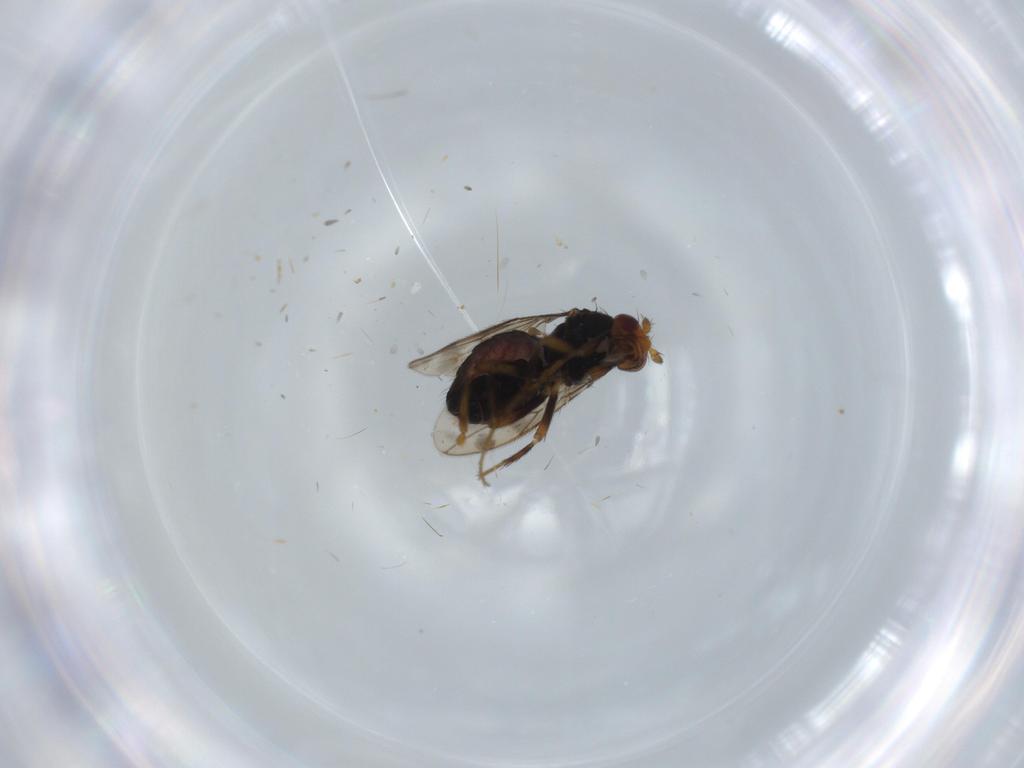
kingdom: Animalia
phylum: Arthropoda
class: Insecta
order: Diptera
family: Sphaeroceridae
